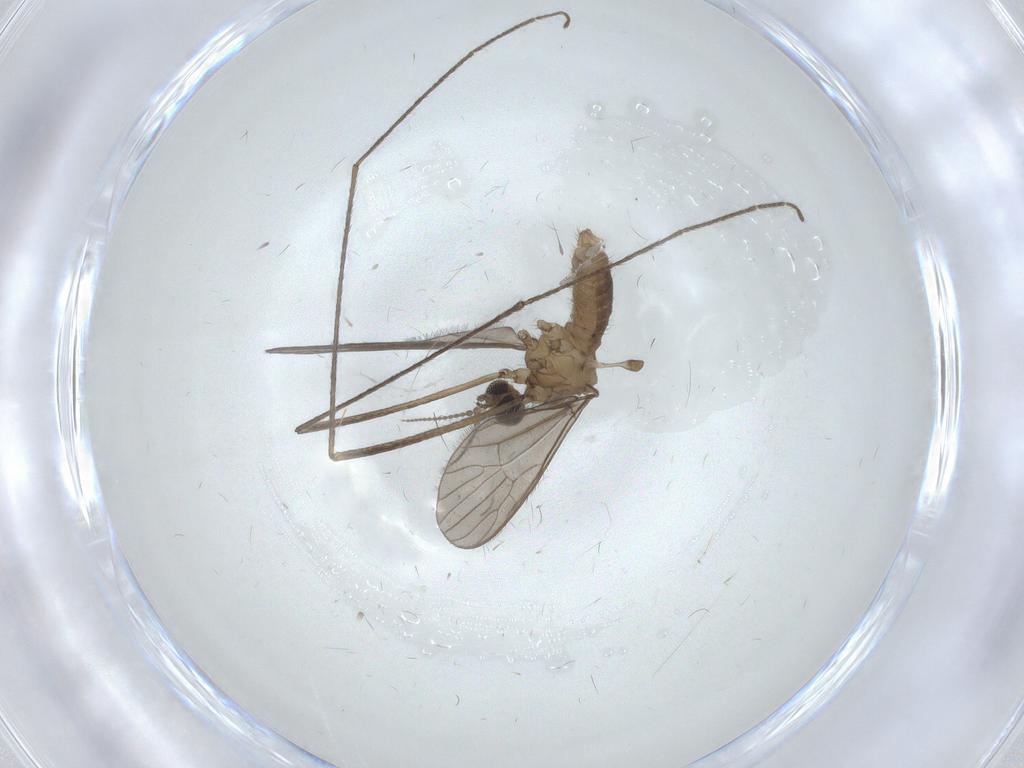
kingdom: Animalia
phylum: Arthropoda
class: Insecta
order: Diptera
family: Limoniidae
